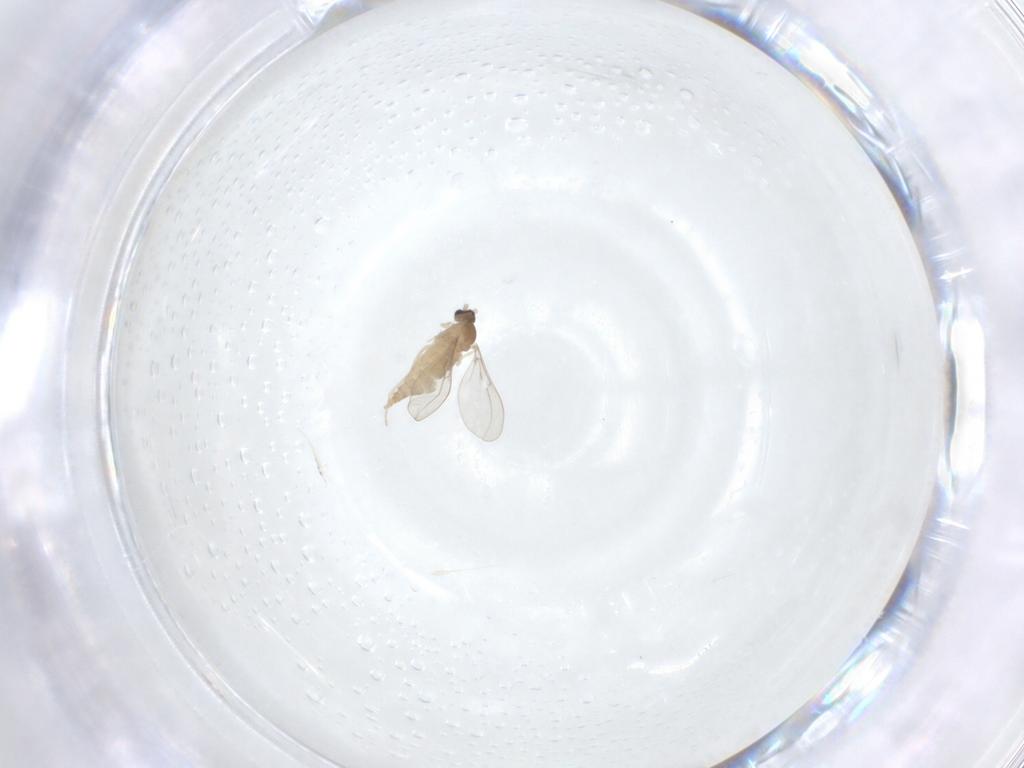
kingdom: Animalia
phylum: Arthropoda
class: Insecta
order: Diptera
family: Cecidomyiidae
